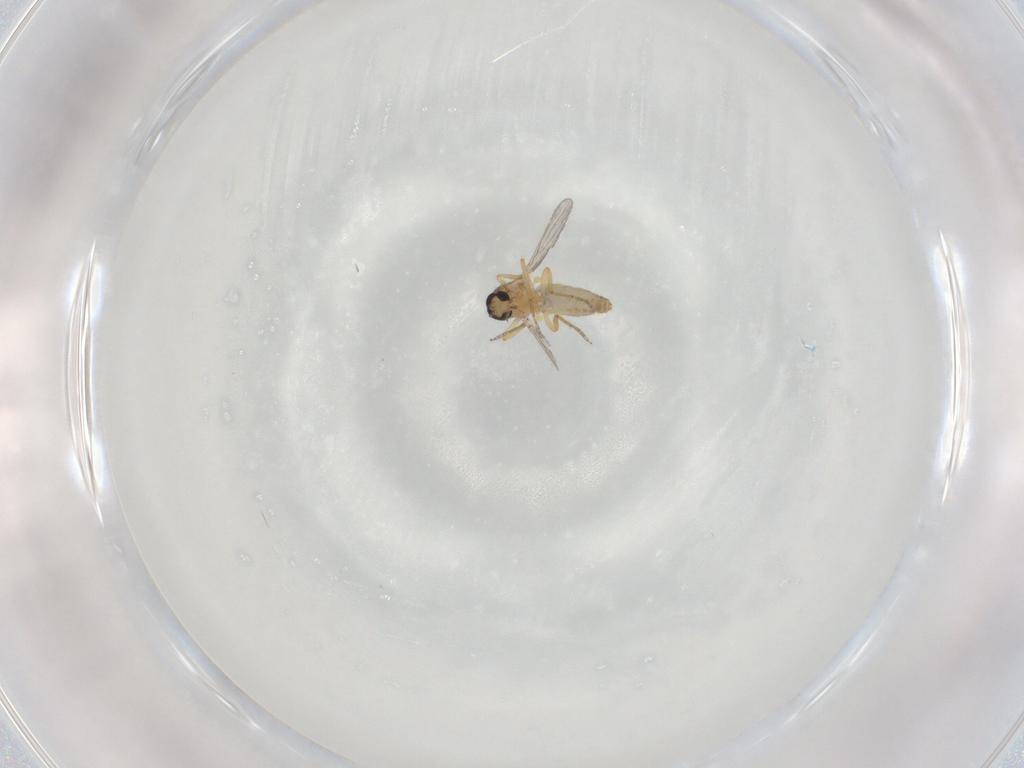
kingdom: Animalia
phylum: Arthropoda
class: Insecta
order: Diptera
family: Ceratopogonidae
